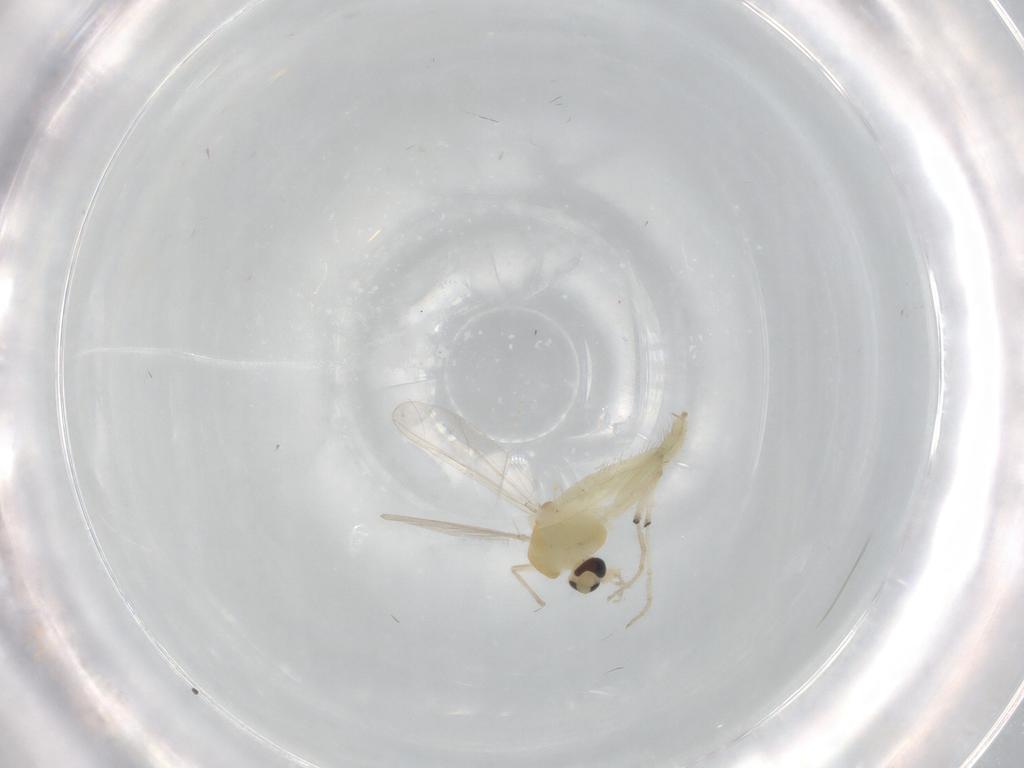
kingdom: Animalia
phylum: Arthropoda
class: Insecta
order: Diptera
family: Chironomidae
